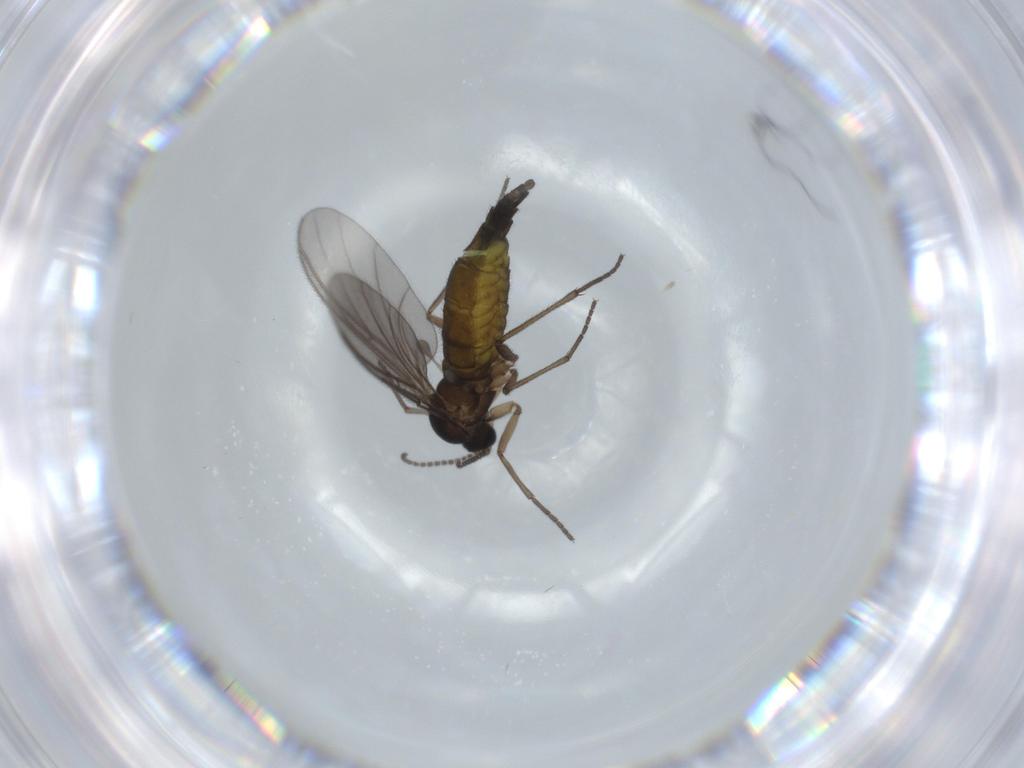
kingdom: Animalia
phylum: Arthropoda
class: Insecta
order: Diptera
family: Sciaridae
